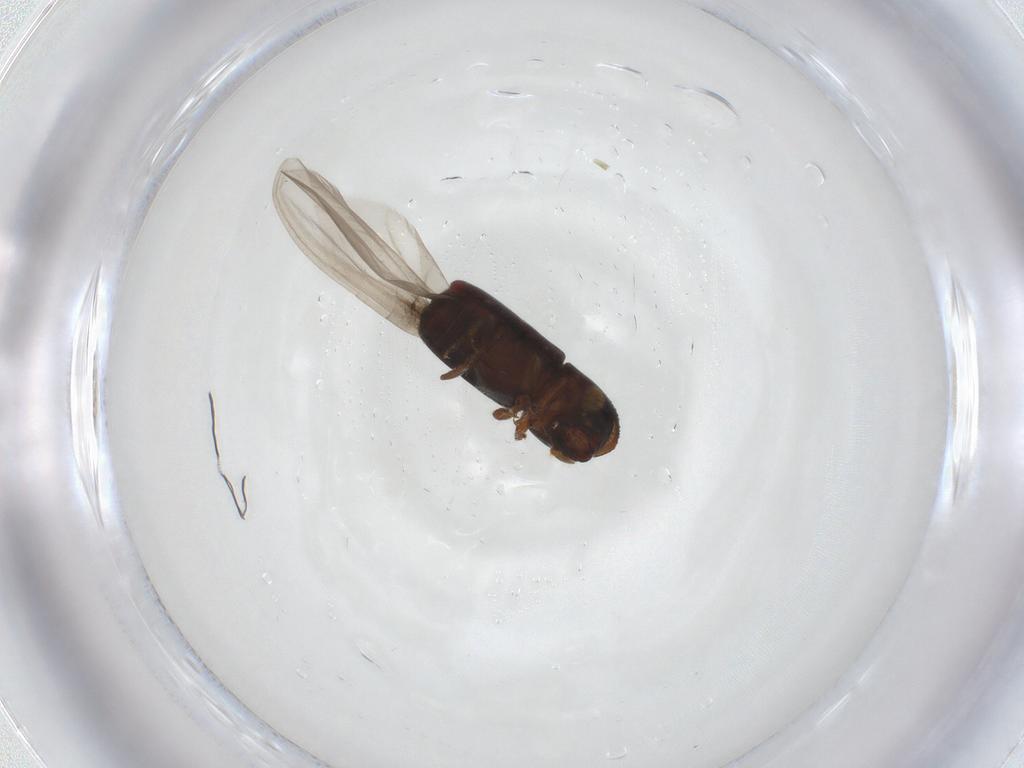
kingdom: Animalia
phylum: Arthropoda
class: Insecta
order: Coleoptera
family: Curculionidae
